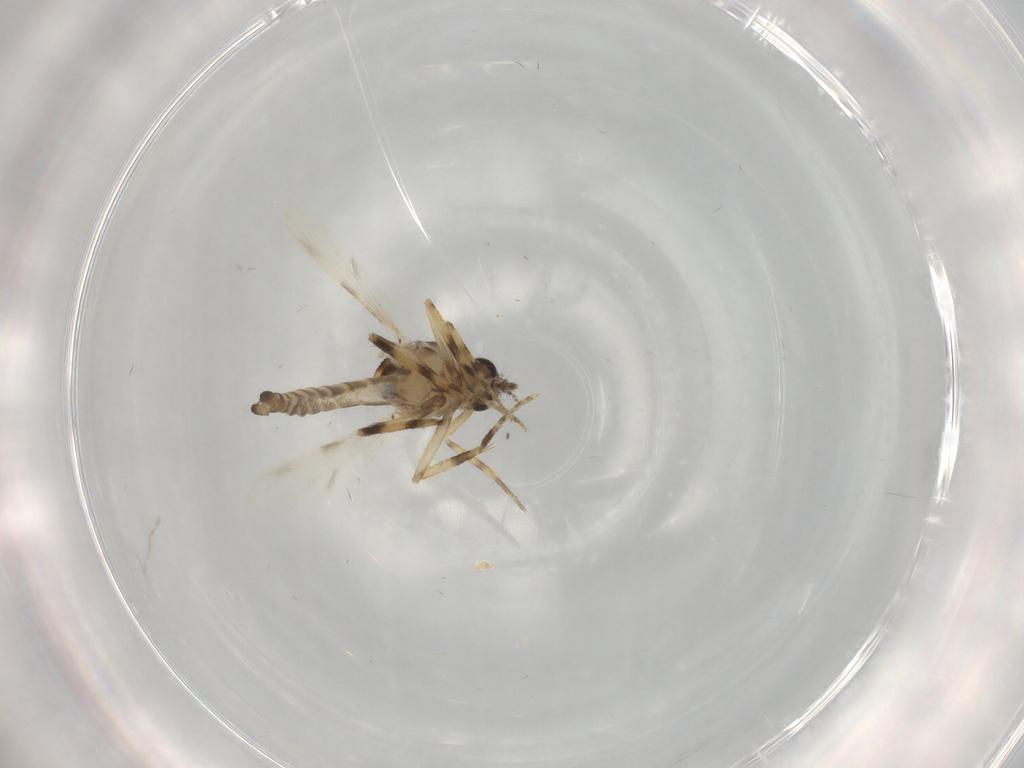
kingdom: Animalia
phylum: Arthropoda
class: Insecta
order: Diptera
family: Ceratopogonidae
